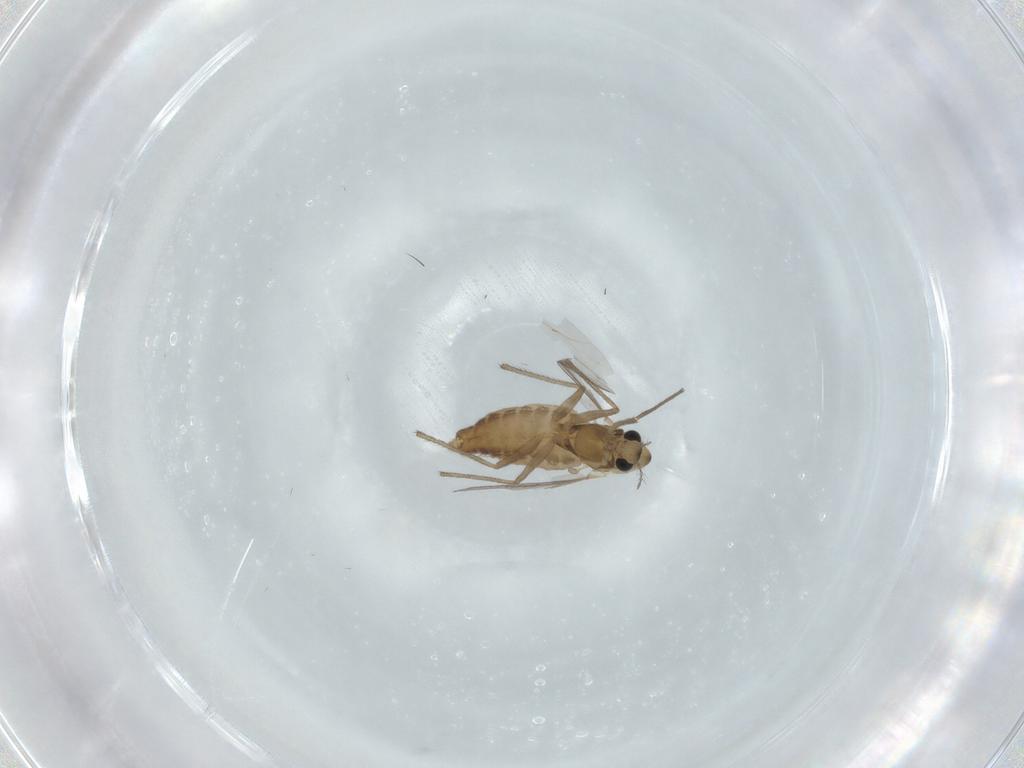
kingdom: Animalia
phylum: Arthropoda
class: Insecta
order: Diptera
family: Chironomidae
